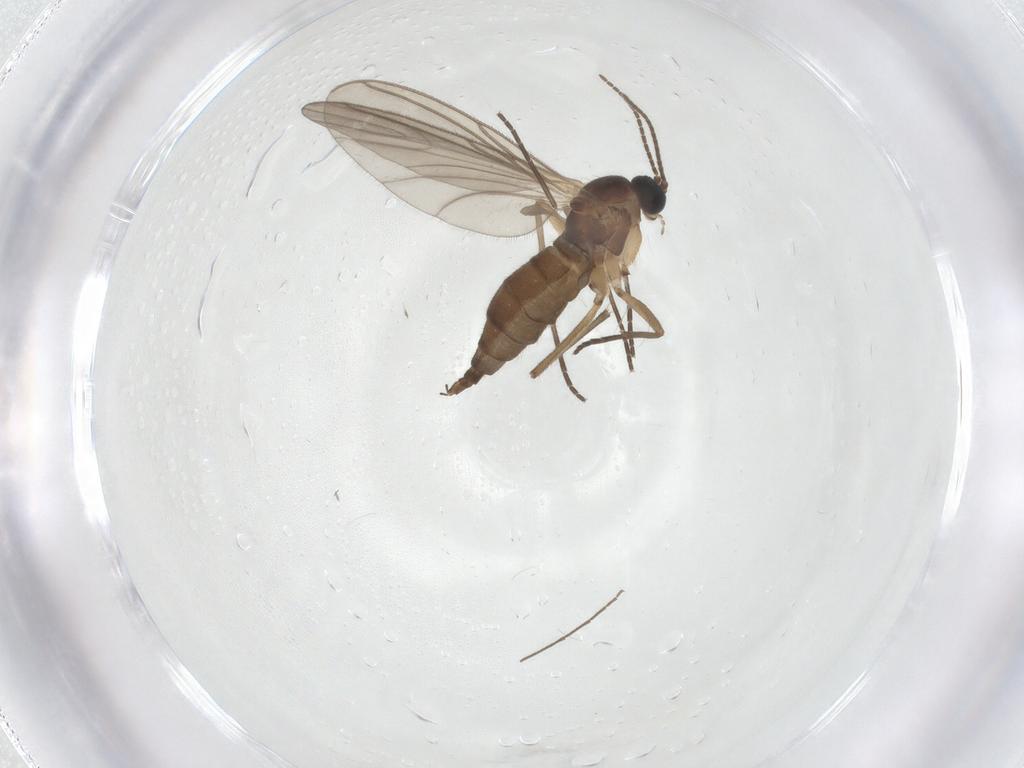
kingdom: Animalia
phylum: Arthropoda
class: Insecta
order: Diptera
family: Sciaridae
